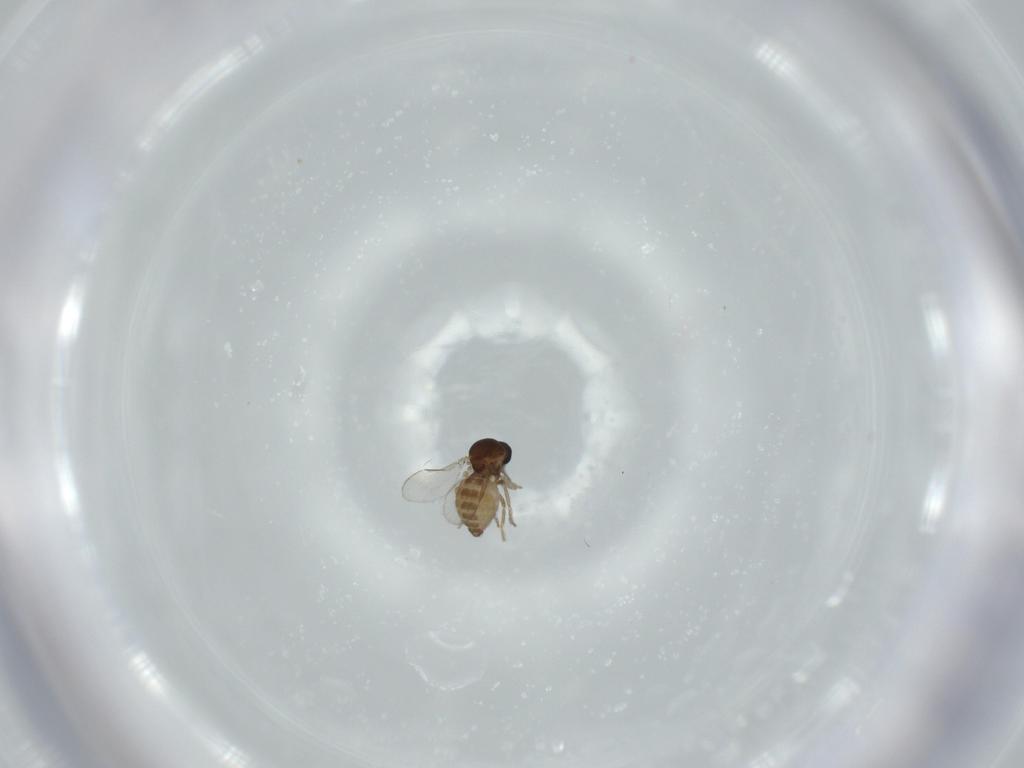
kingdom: Animalia
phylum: Arthropoda
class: Insecta
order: Diptera
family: Ceratopogonidae
